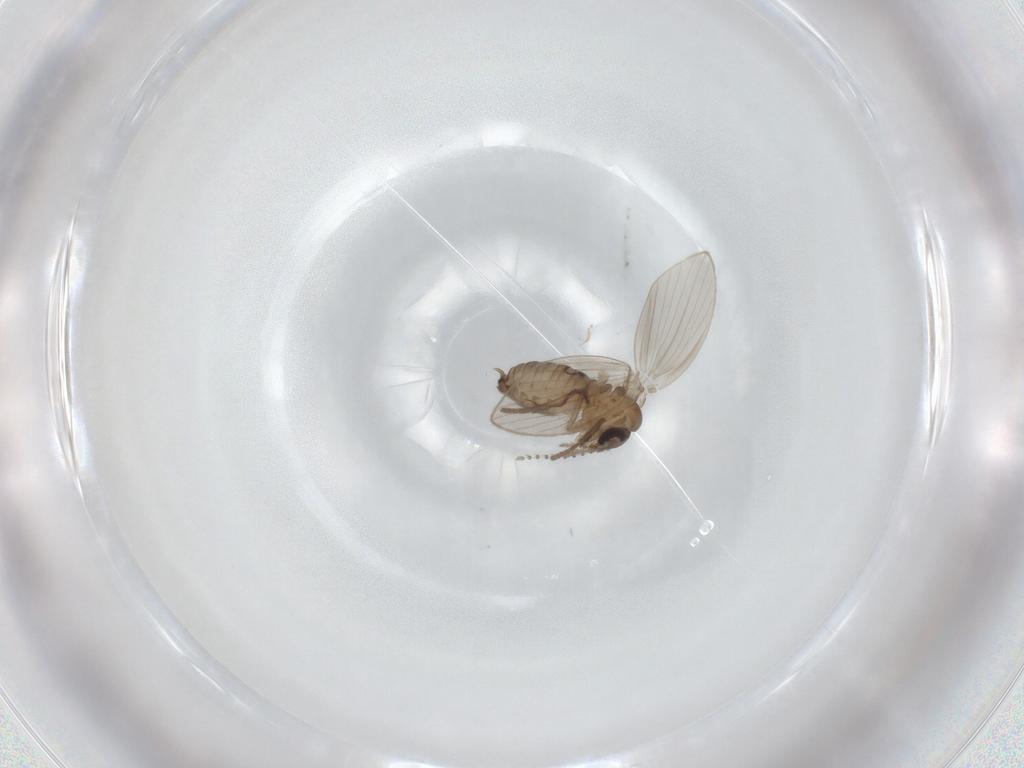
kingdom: Animalia
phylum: Arthropoda
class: Insecta
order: Diptera
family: Psychodidae
